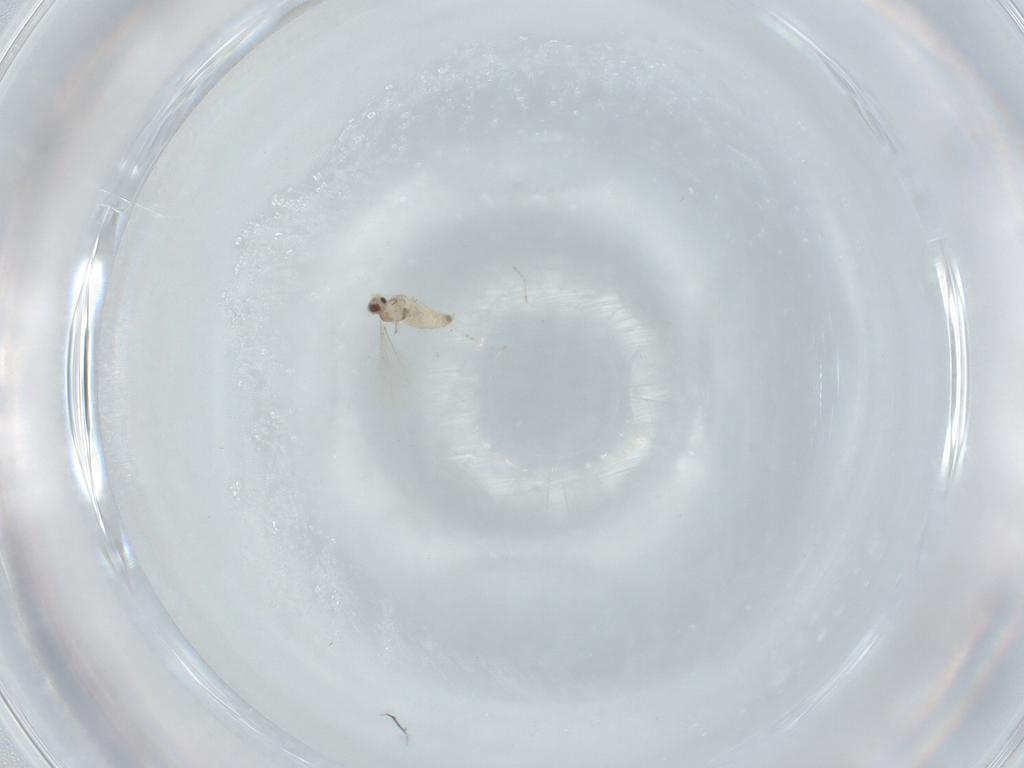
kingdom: Animalia
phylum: Arthropoda
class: Insecta
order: Diptera
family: Cecidomyiidae
